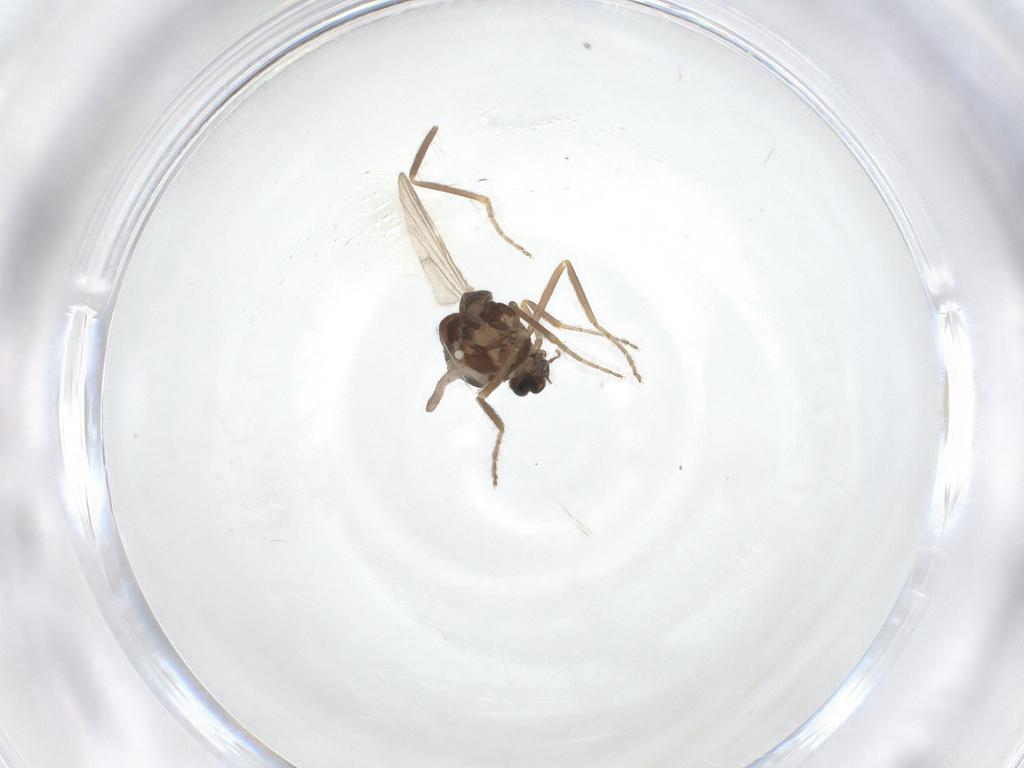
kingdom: Animalia
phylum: Arthropoda
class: Insecta
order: Diptera
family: Ceratopogonidae
